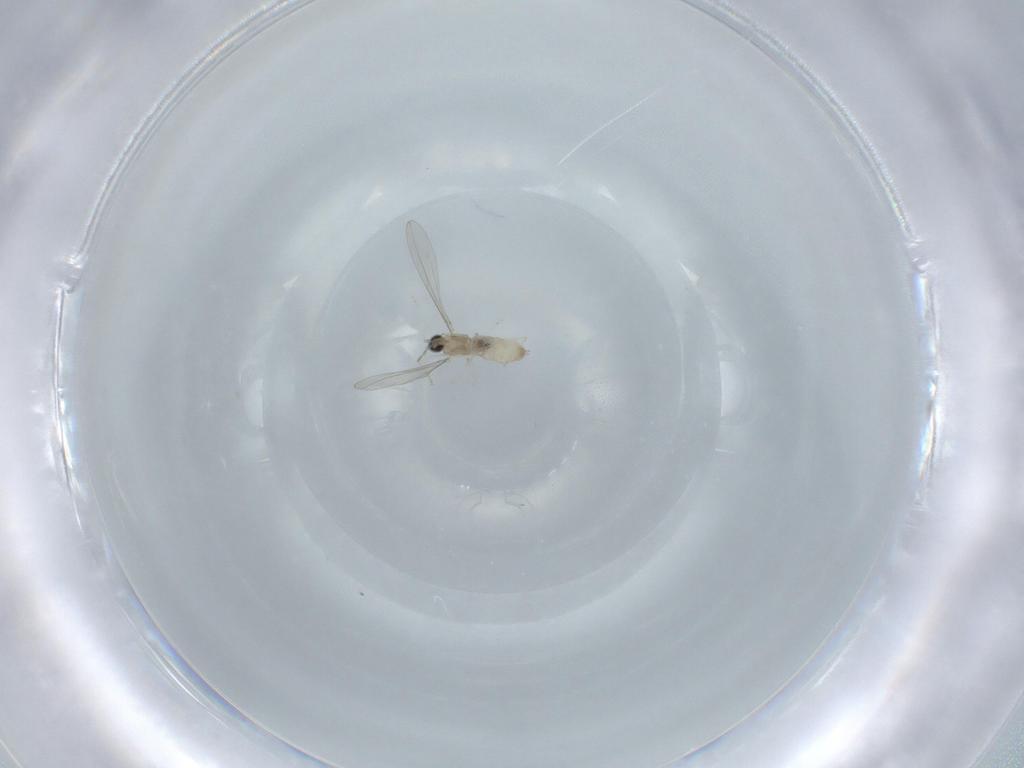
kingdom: Animalia
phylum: Arthropoda
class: Insecta
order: Diptera
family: Cecidomyiidae
